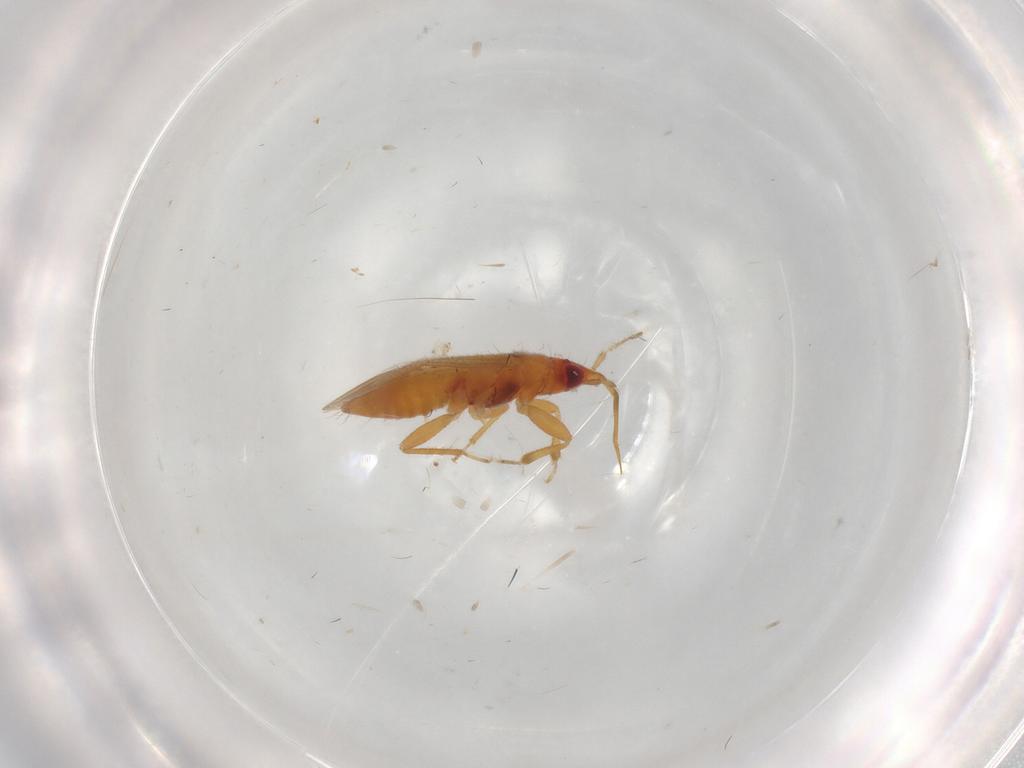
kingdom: Animalia
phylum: Arthropoda
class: Insecta
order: Hemiptera
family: Anthocoridae
